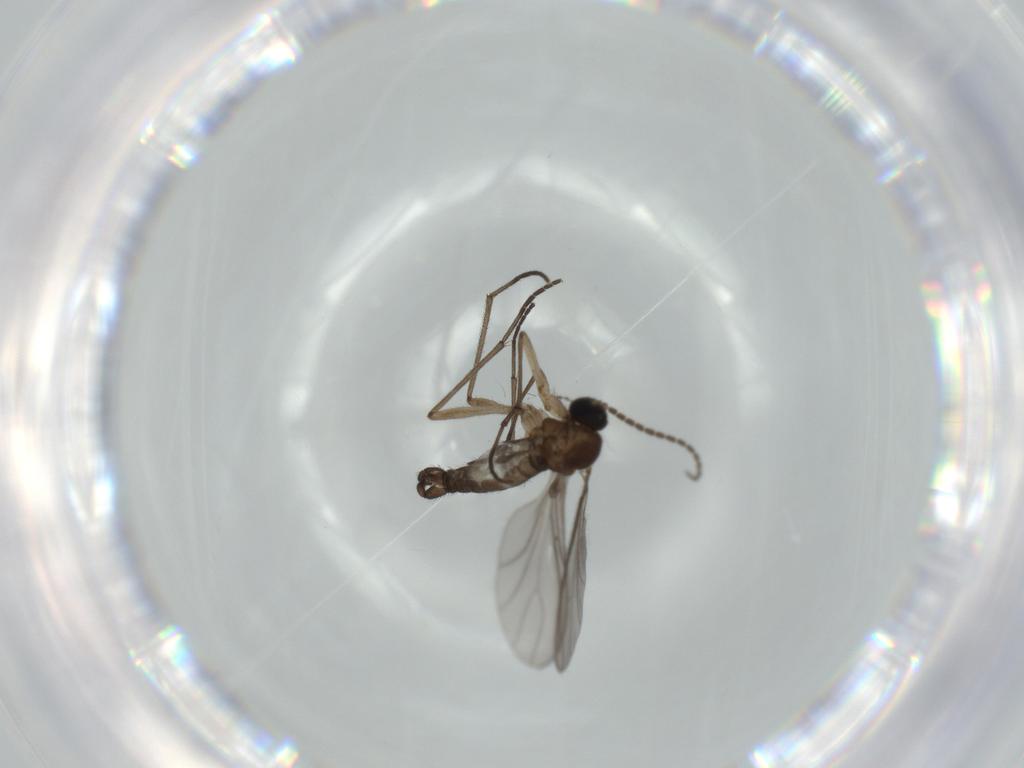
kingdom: Animalia
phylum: Arthropoda
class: Insecta
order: Diptera
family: Sciaridae
